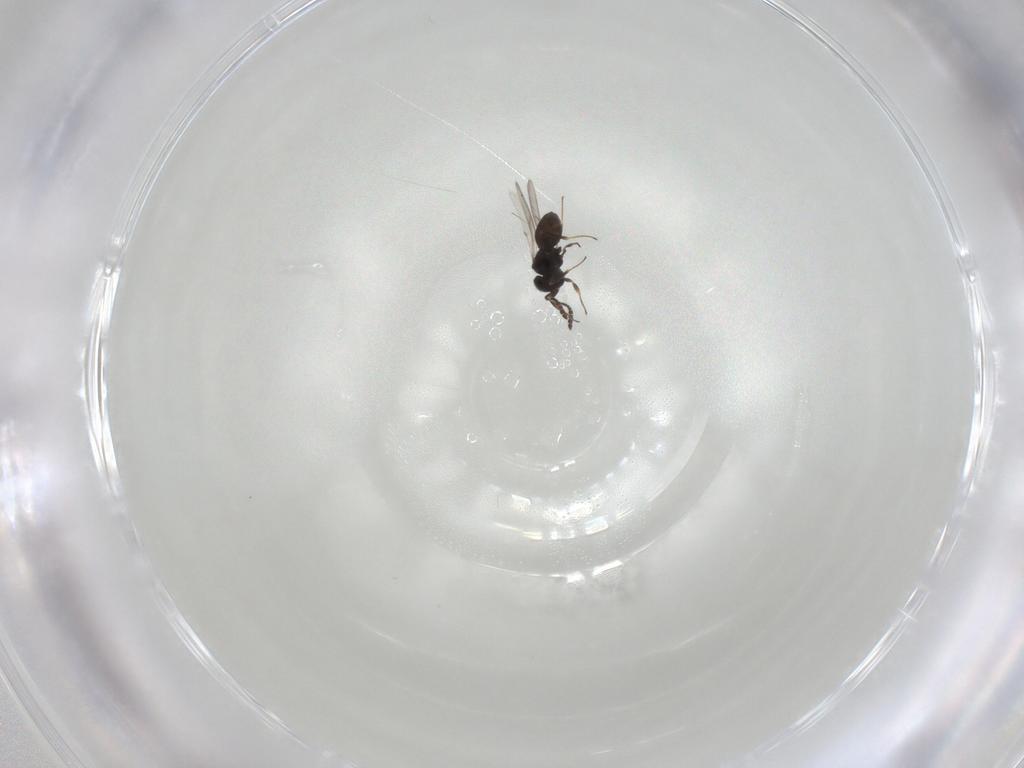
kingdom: Animalia
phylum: Arthropoda
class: Insecta
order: Hymenoptera
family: Scelionidae
